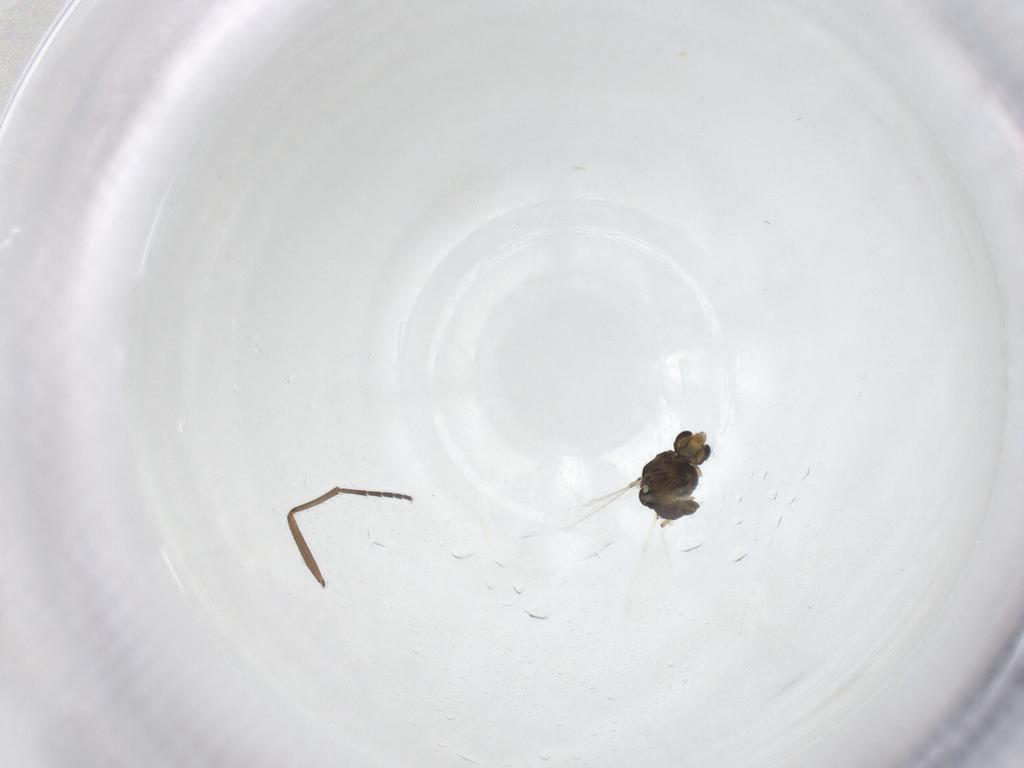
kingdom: Animalia
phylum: Arthropoda
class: Insecta
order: Diptera
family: Chironomidae
